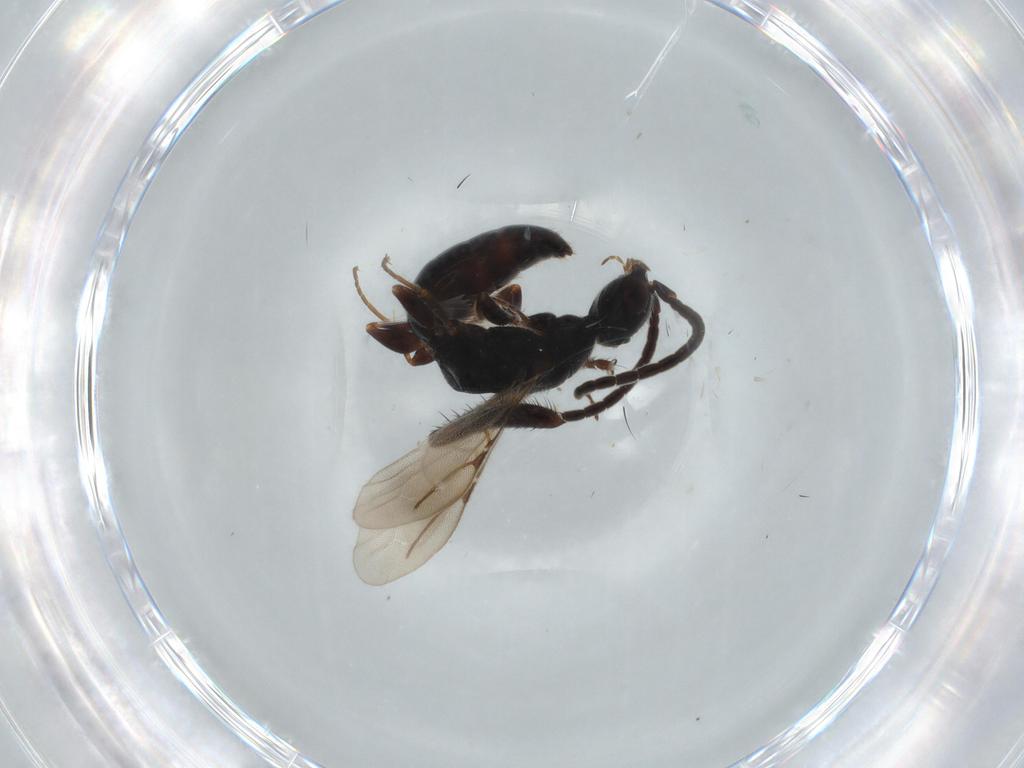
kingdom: Animalia
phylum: Arthropoda
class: Insecta
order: Hymenoptera
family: Bethylidae
